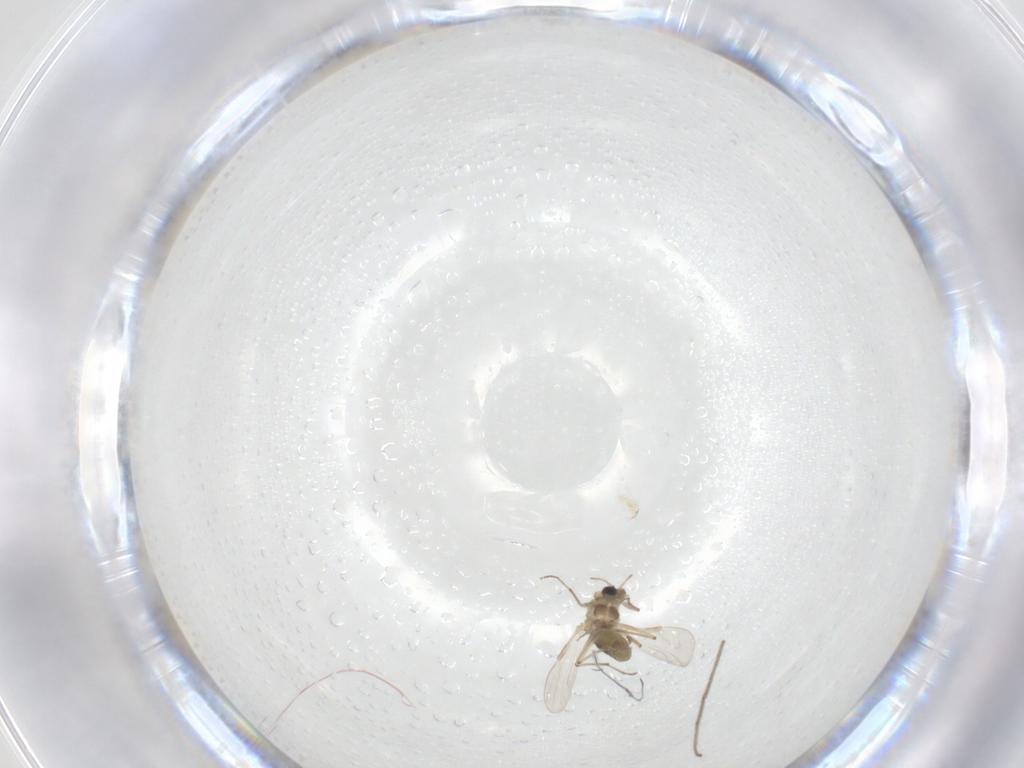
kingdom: Animalia
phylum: Arthropoda
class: Insecta
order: Diptera
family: Chironomidae
